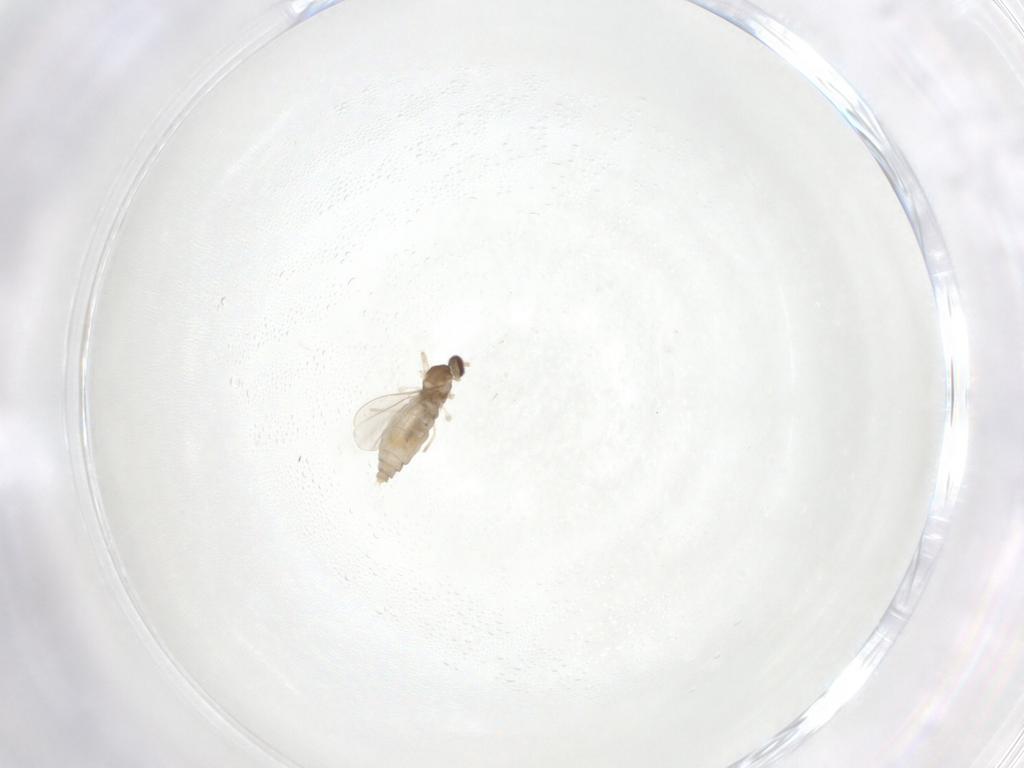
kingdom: Animalia
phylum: Arthropoda
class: Insecta
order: Diptera
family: Cecidomyiidae
